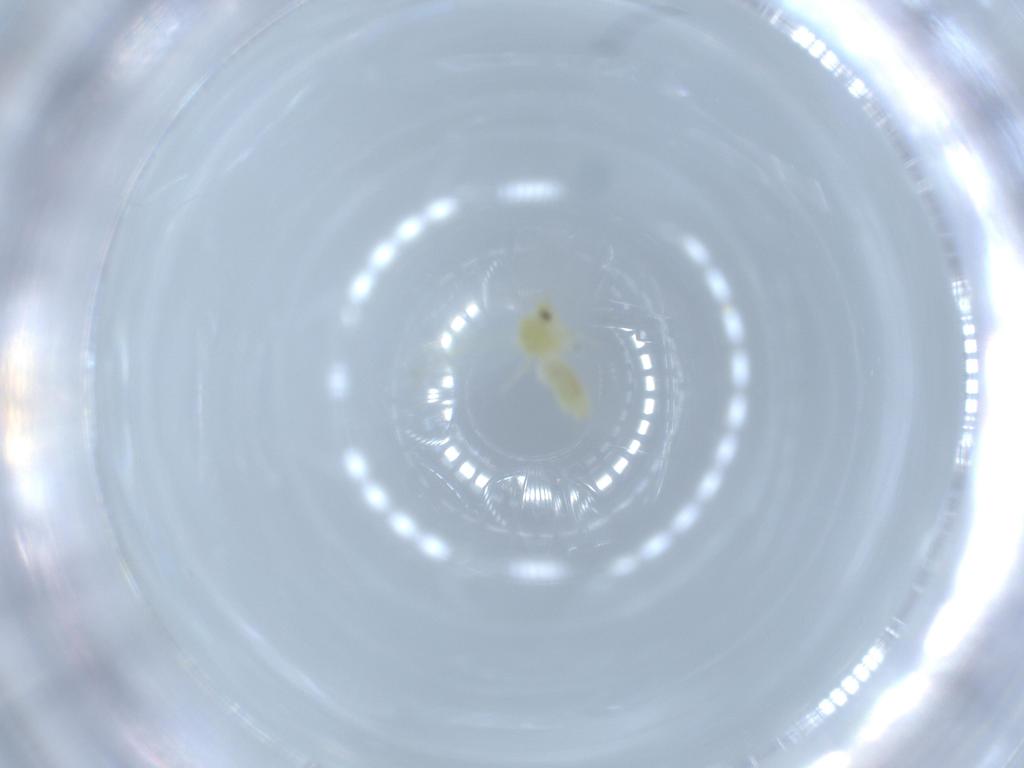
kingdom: Animalia
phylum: Arthropoda
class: Insecta
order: Hemiptera
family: Aleyrodidae
